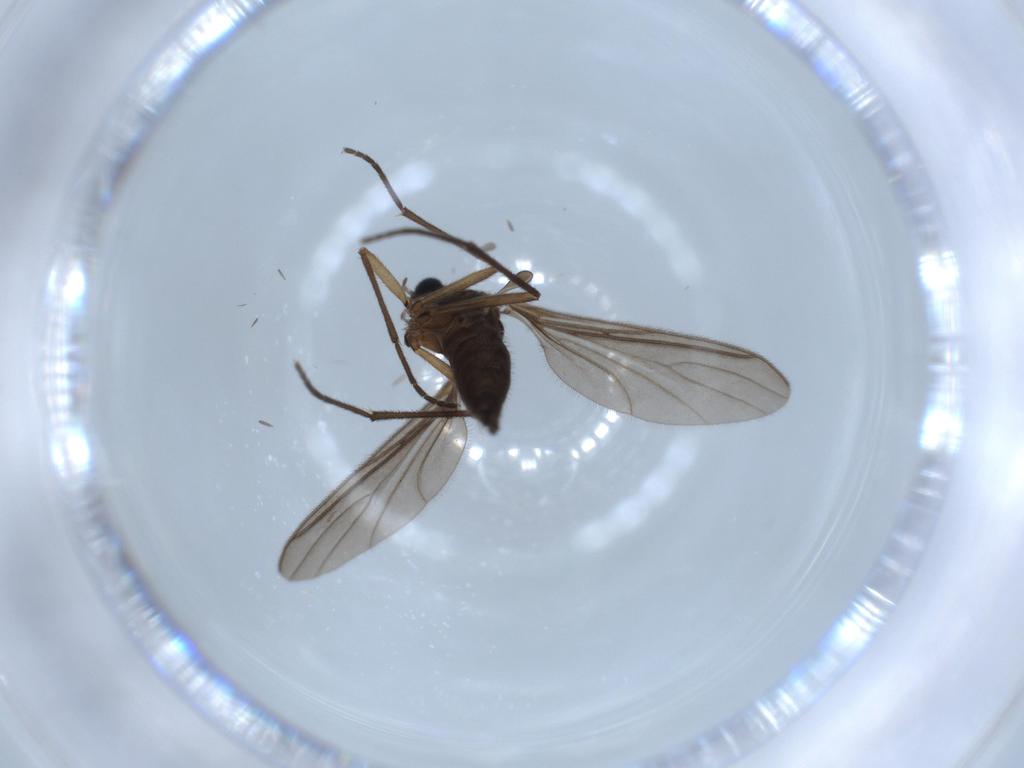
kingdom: Animalia
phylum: Arthropoda
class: Insecta
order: Diptera
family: Sciaridae
